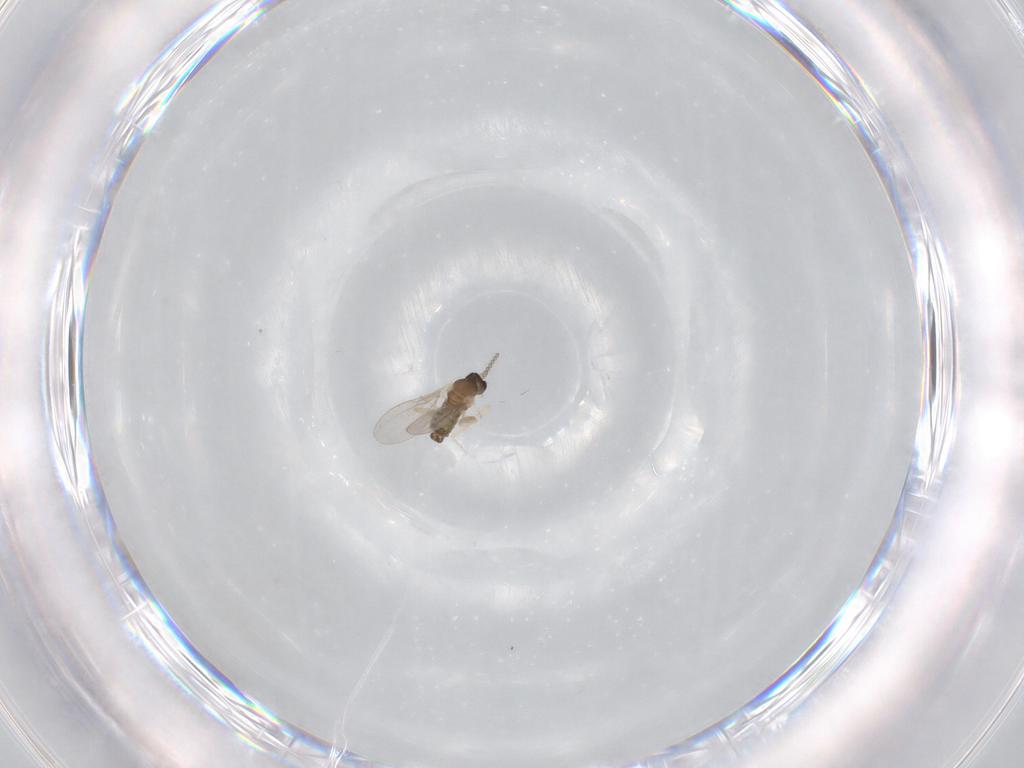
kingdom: Animalia
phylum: Arthropoda
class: Insecta
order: Diptera
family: Cecidomyiidae
